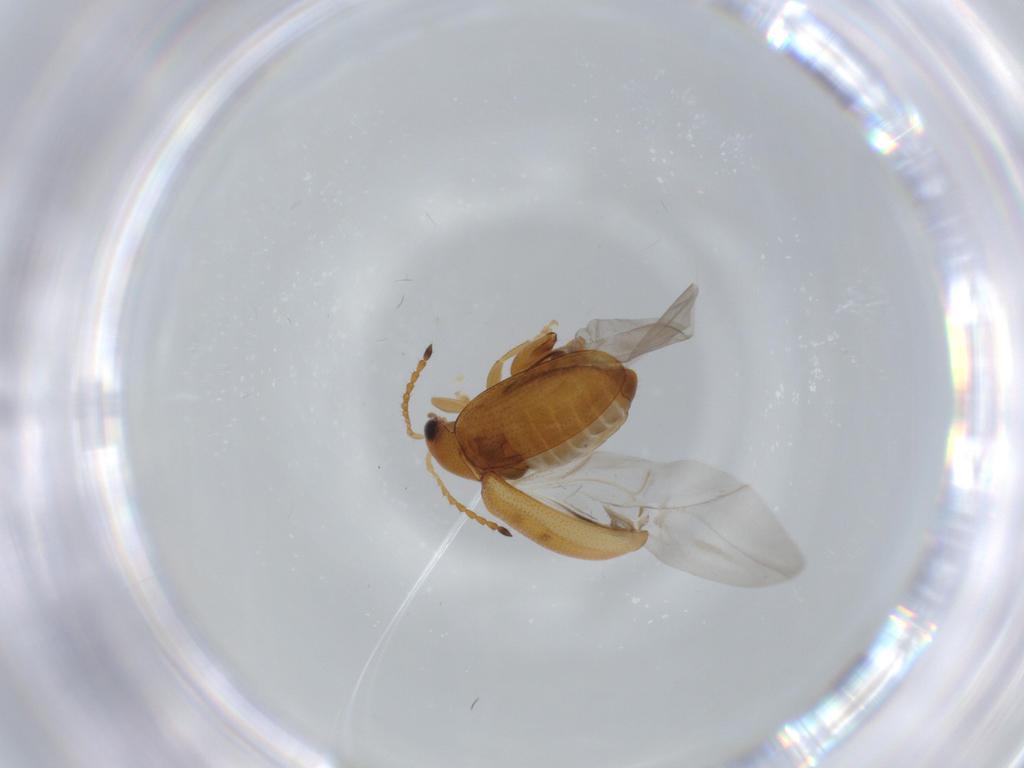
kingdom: Animalia
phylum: Arthropoda
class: Insecta
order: Coleoptera
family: Chrysomelidae
